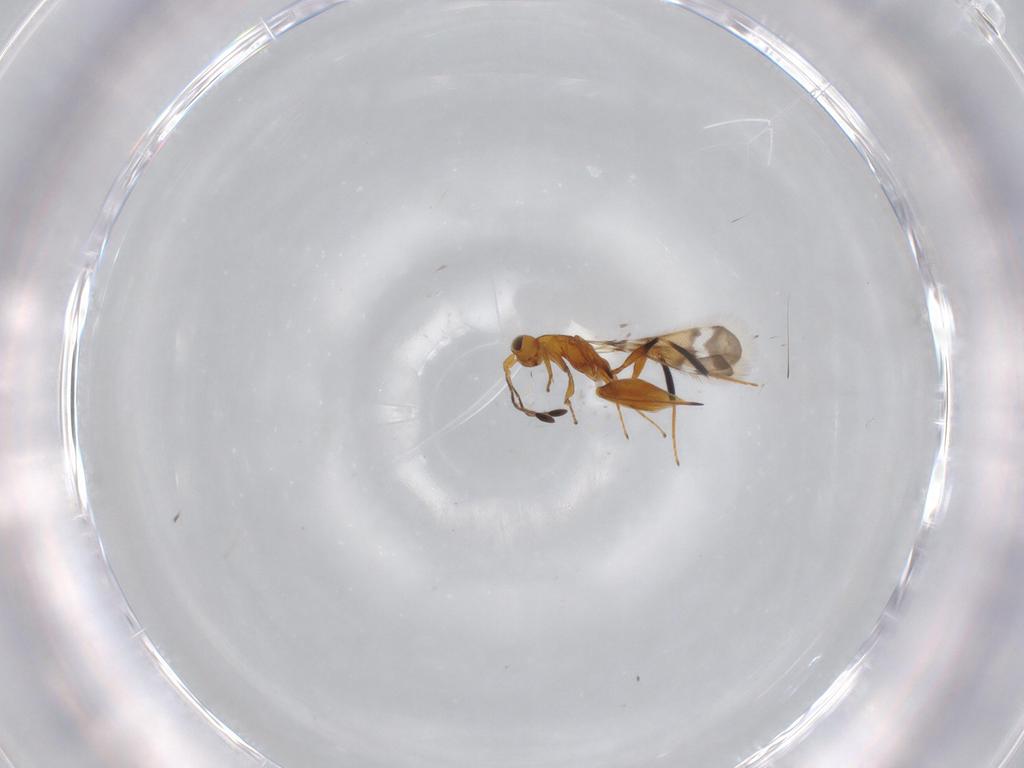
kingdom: Animalia
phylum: Arthropoda
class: Insecta
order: Hymenoptera
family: Mymaridae
